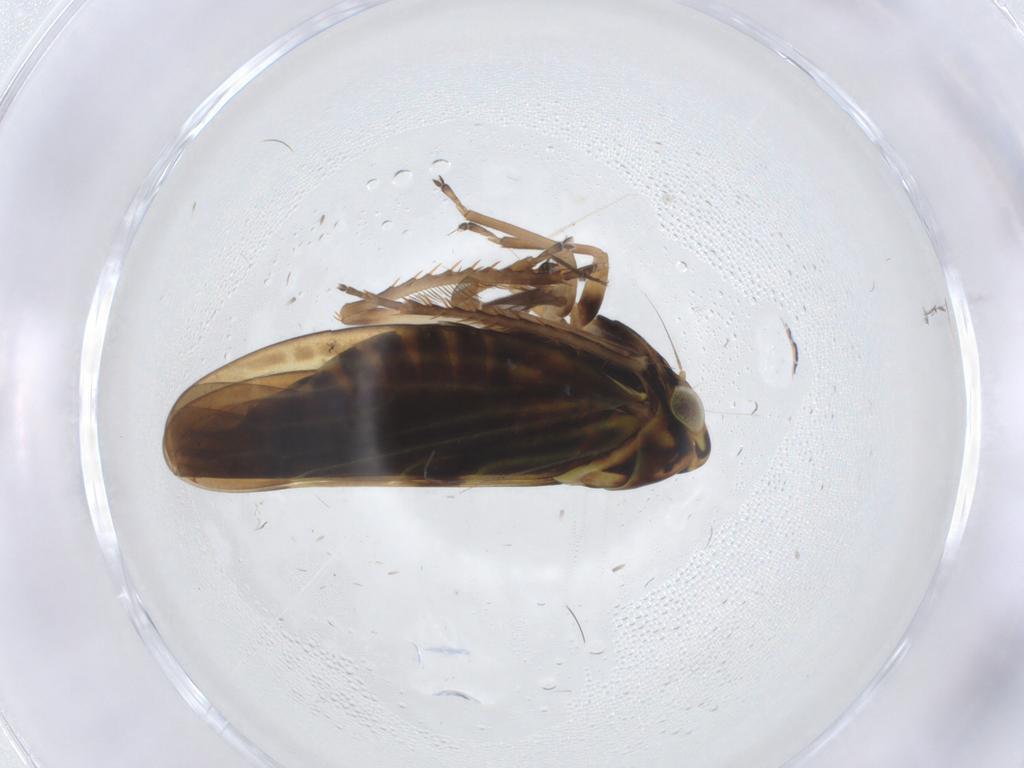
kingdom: Animalia
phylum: Arthropoda
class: Insecta
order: Hemiptera
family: Cicadellidae
